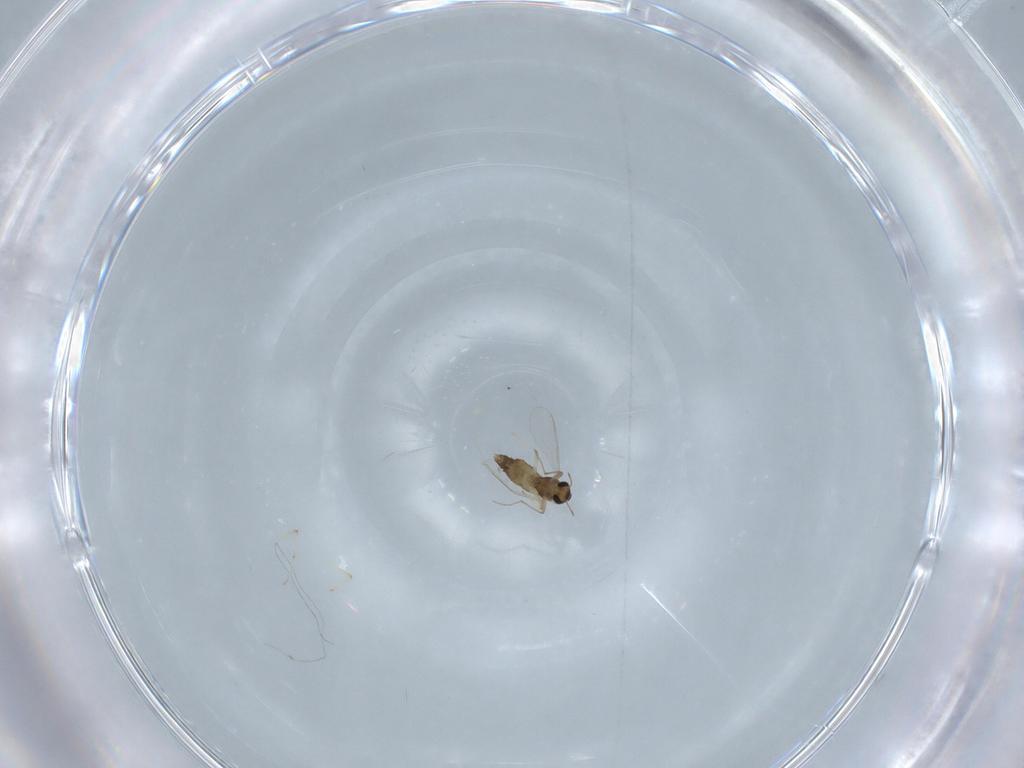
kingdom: Animalia
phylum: Arthropoda
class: Insecta
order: Diptera
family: Chironomidae
